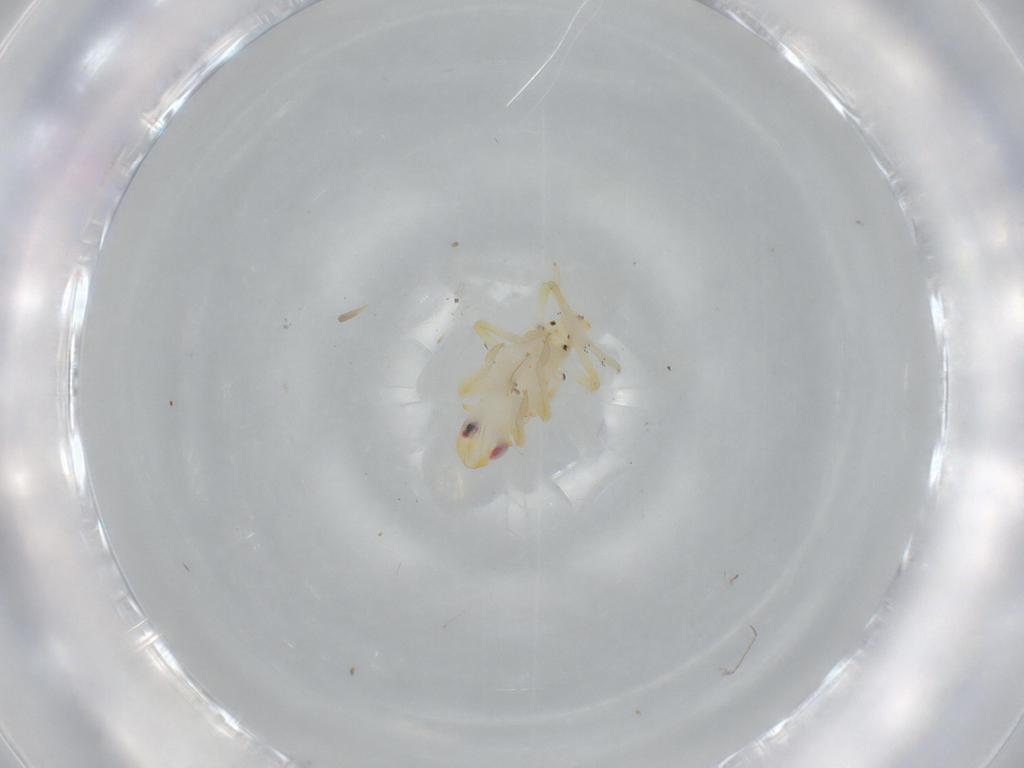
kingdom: Animalia
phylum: Arthropoda
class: Insecta
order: Hemiptera
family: Tropiduchidae
